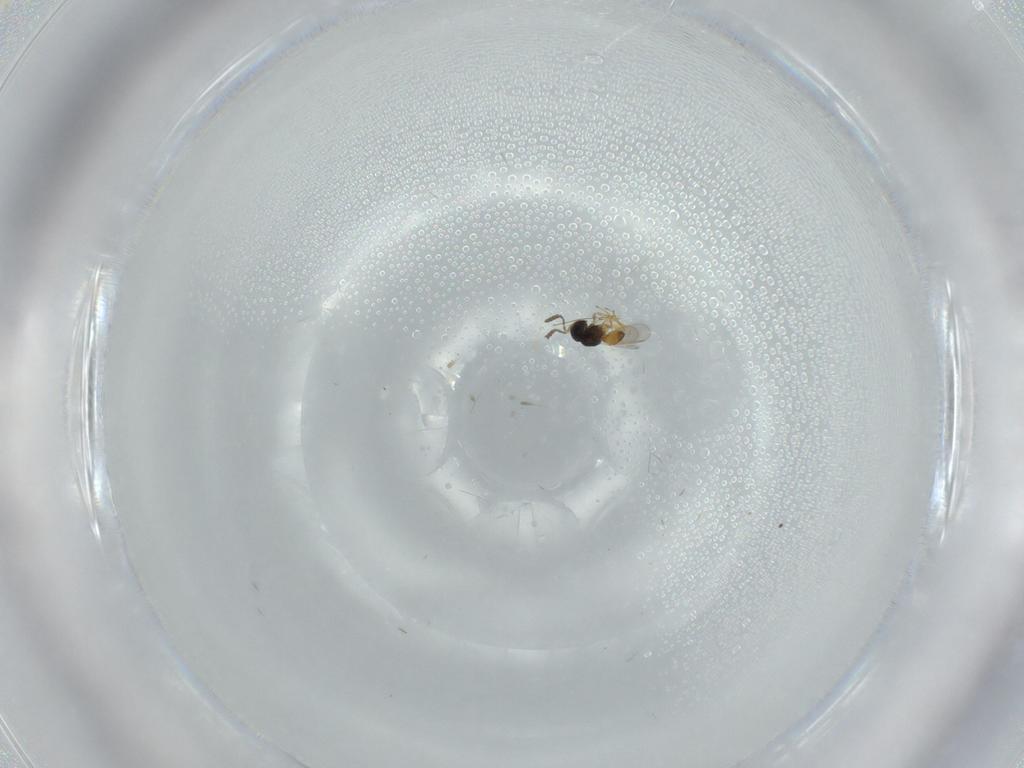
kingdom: Animalia
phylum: Arthropoda
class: Insecta
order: Hymenoptera
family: Scelionidae
